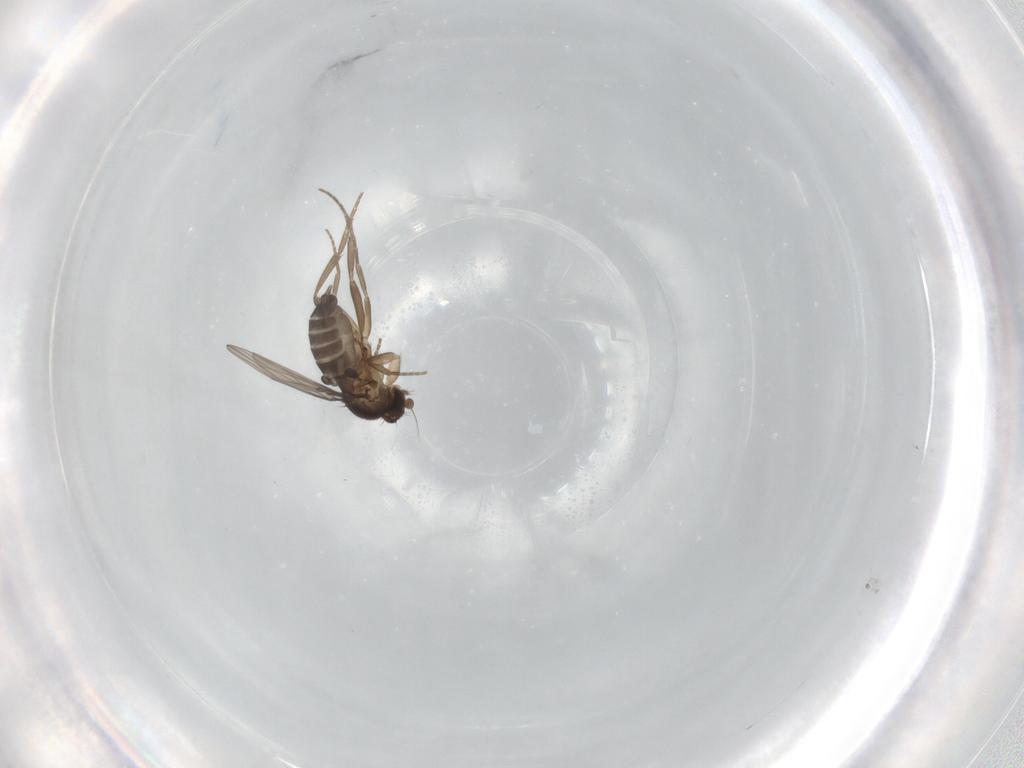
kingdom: Animalia
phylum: Arthropoda
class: Insecta
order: Diptera
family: Phoridae
